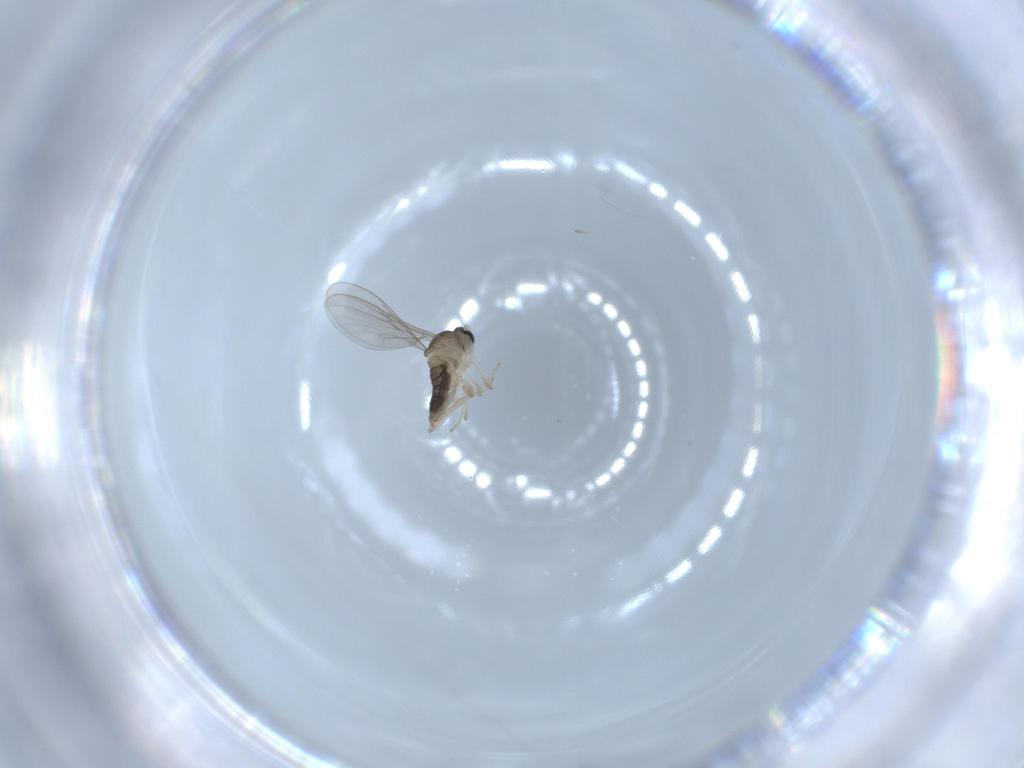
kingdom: Animalia
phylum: Arthropoda
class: Insecta
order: Diptera
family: Cecidomyiidae
